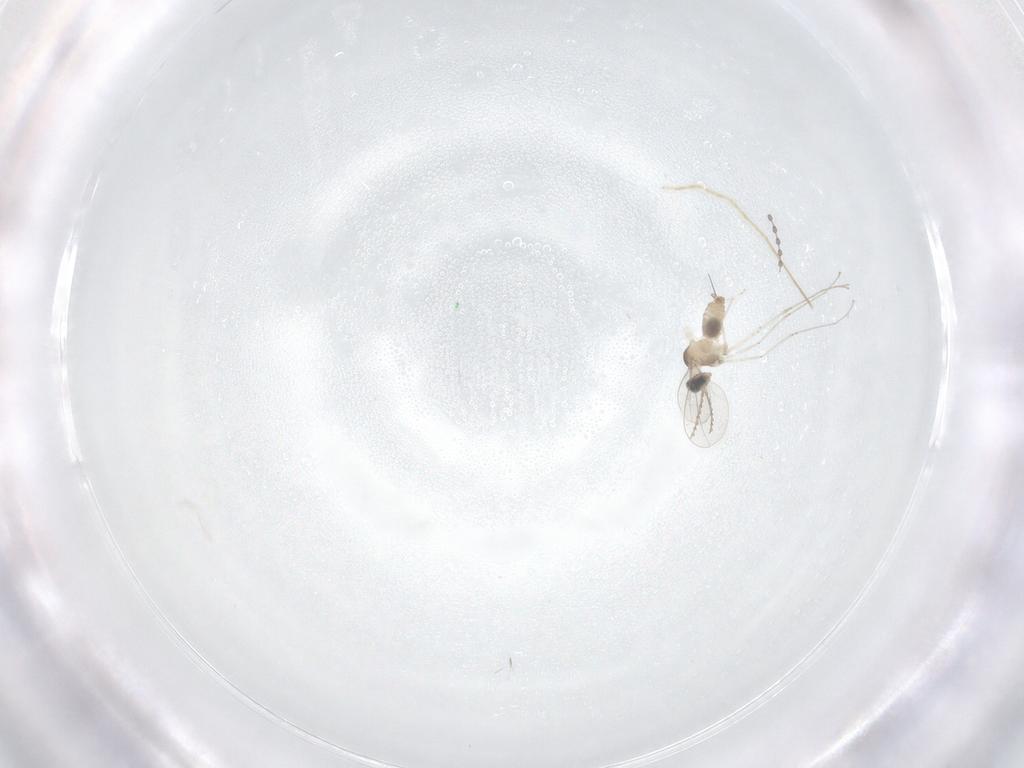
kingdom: Animalia
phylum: Arthropoda
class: Insecta
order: Diptera
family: Cecidomyiidae
